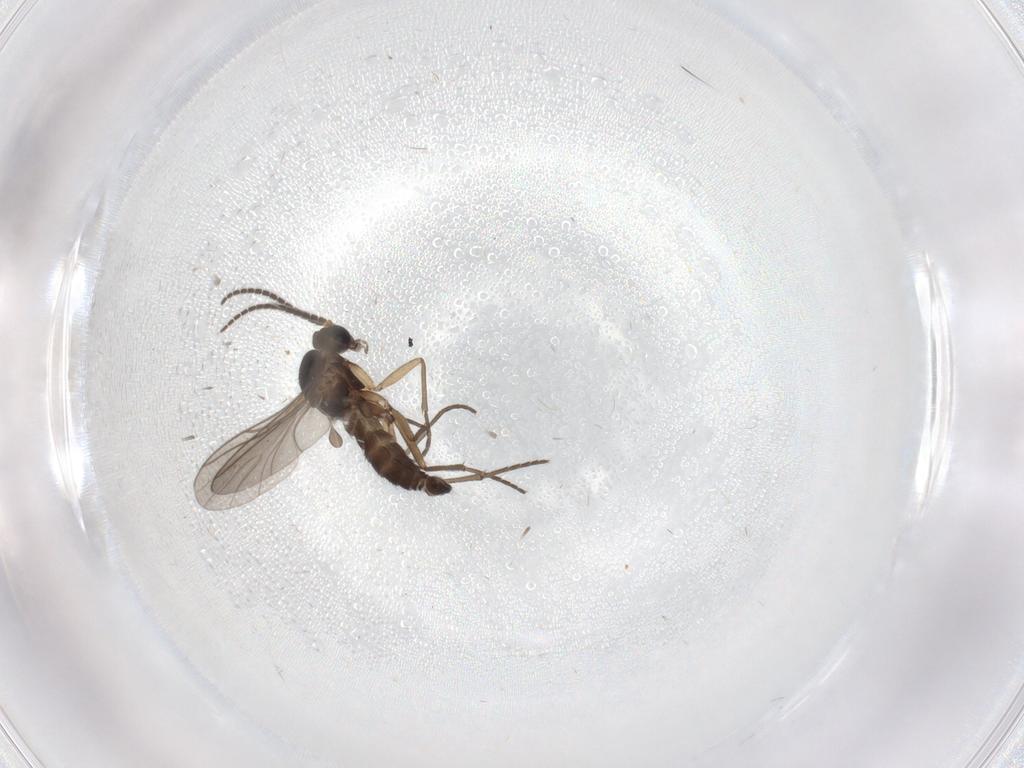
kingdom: Animalia
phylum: Arthropoda
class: Insecta
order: Diptera
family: Sciaridae
